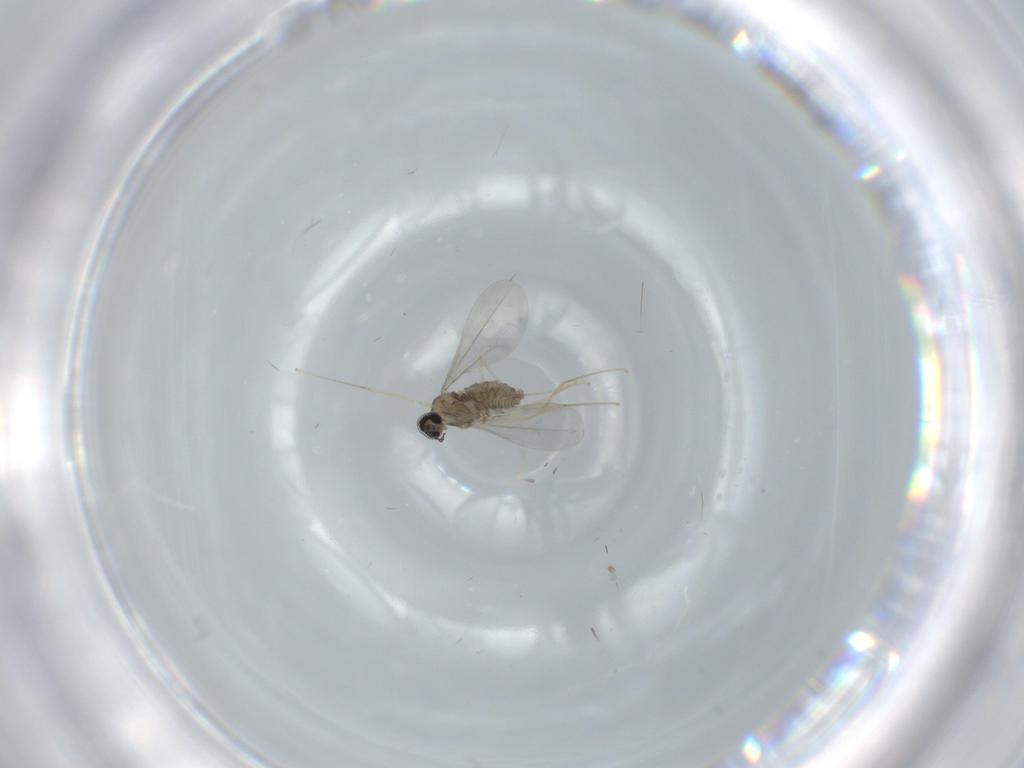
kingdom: Animalia
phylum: Arthropoda
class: Insecta
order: Diptera
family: Cecidomyiidae
